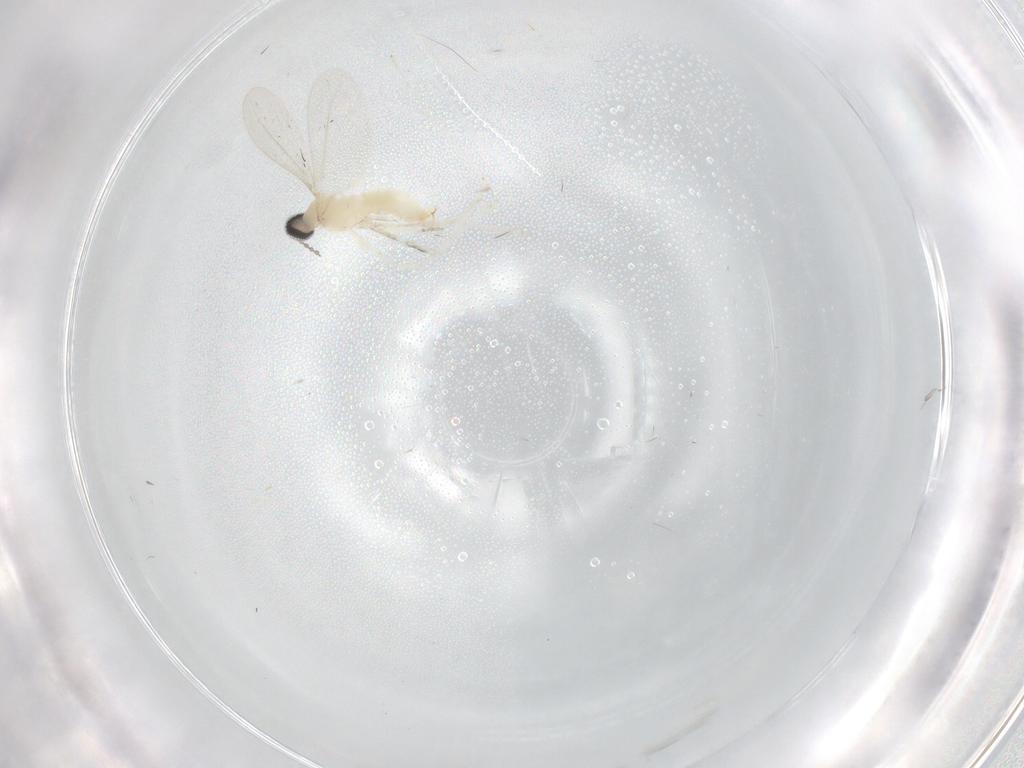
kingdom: Animalia
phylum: Arthropoda
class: Insecta
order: Diptera
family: Cecidomyiidae
